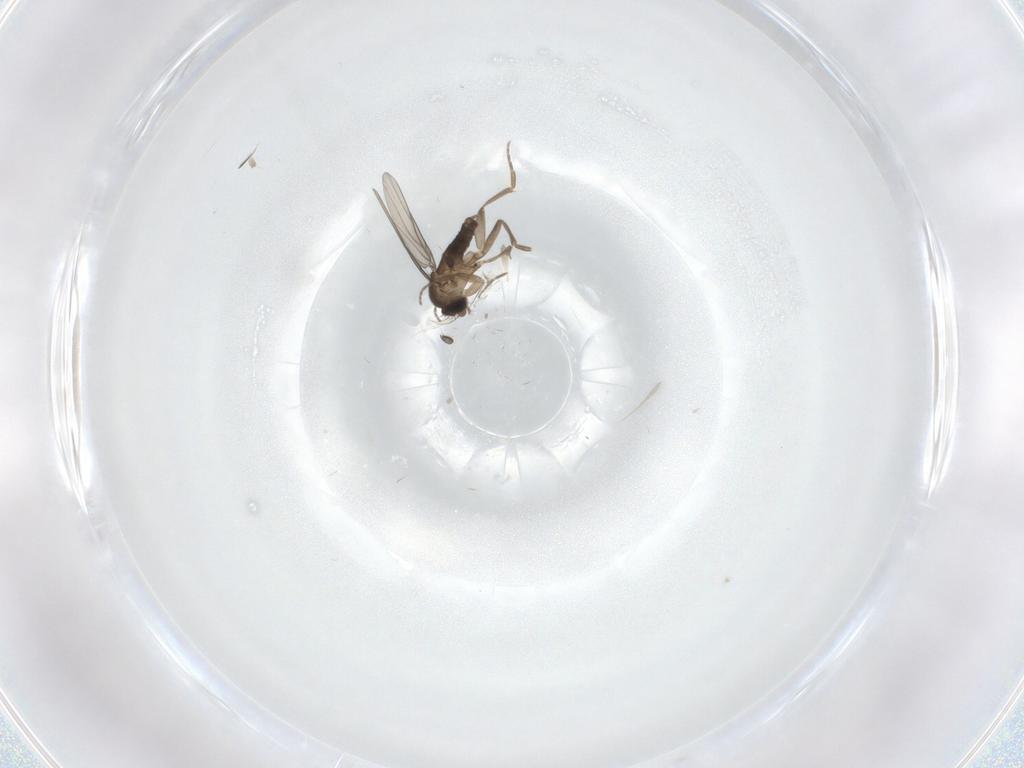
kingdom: Animalia
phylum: Arthropoda
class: Insecta
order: Diptera
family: Phoridae
